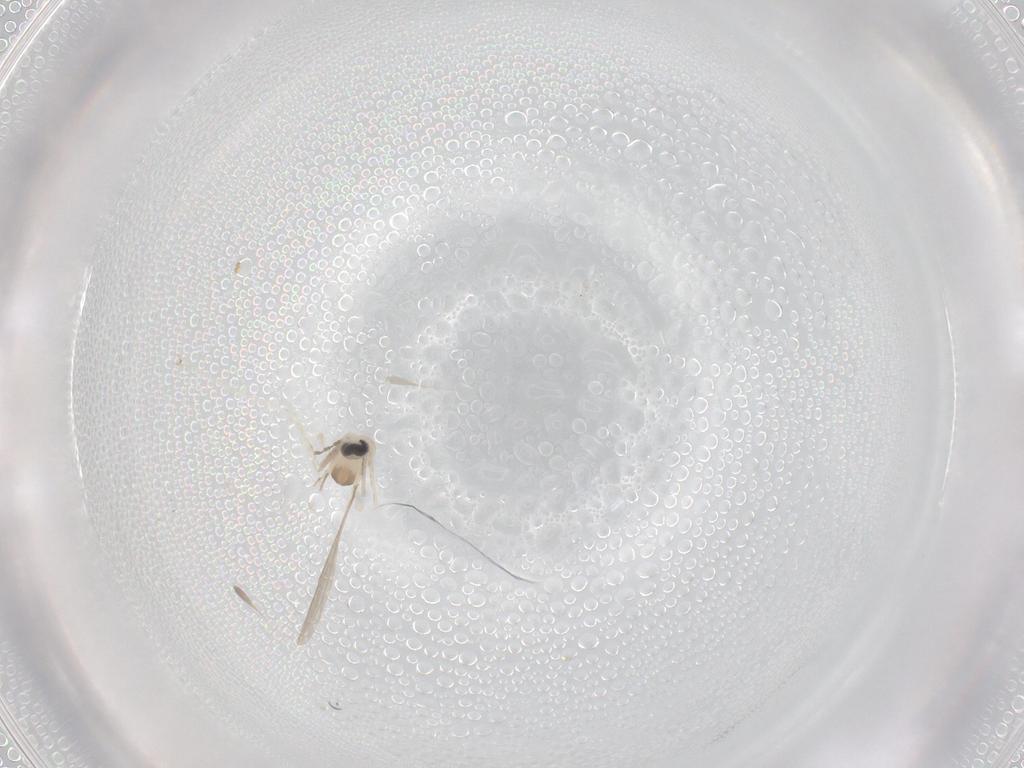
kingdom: Animalia
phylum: Arthropoda
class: Insecta
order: Diptera
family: Cecidomyiidae
